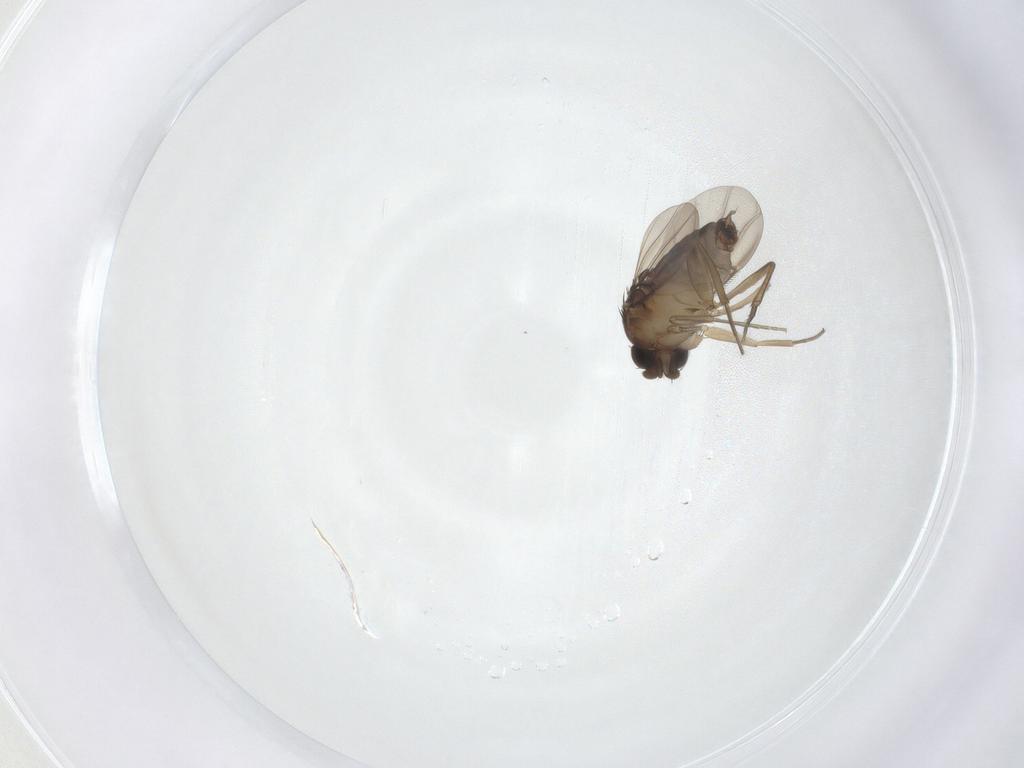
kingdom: Animalia
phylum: Arthropoda
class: Insecta
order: Diptera
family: Phoridae
